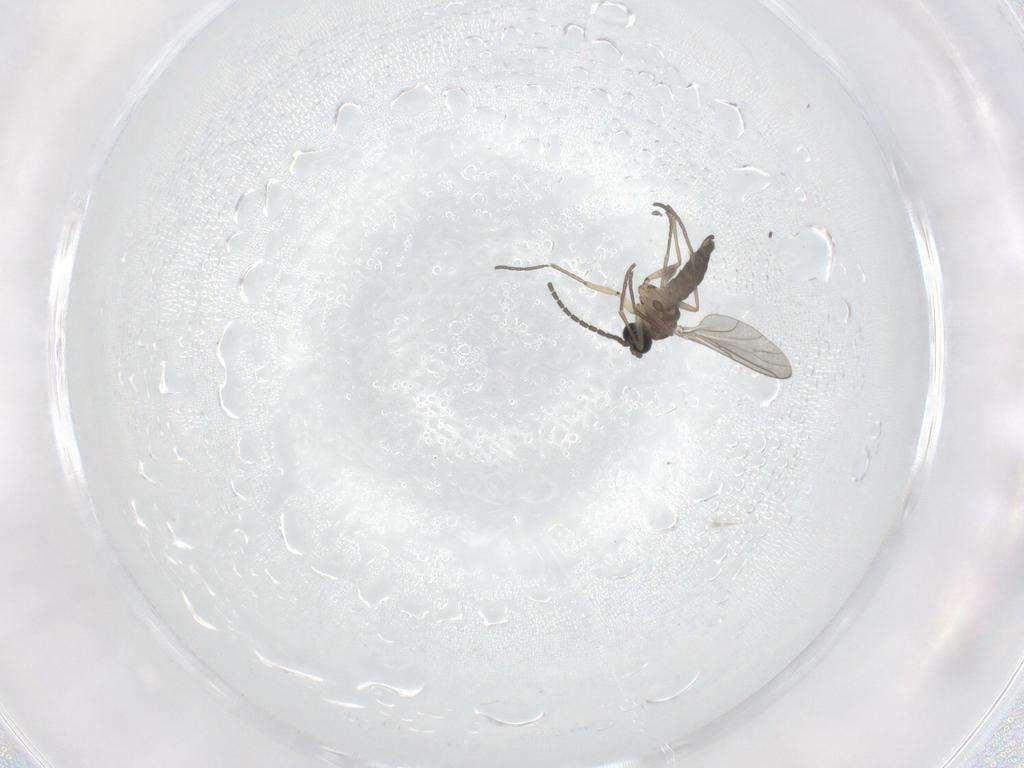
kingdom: Animalia
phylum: Arthropoda
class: Insecta
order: Diptera
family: Sciaridae
